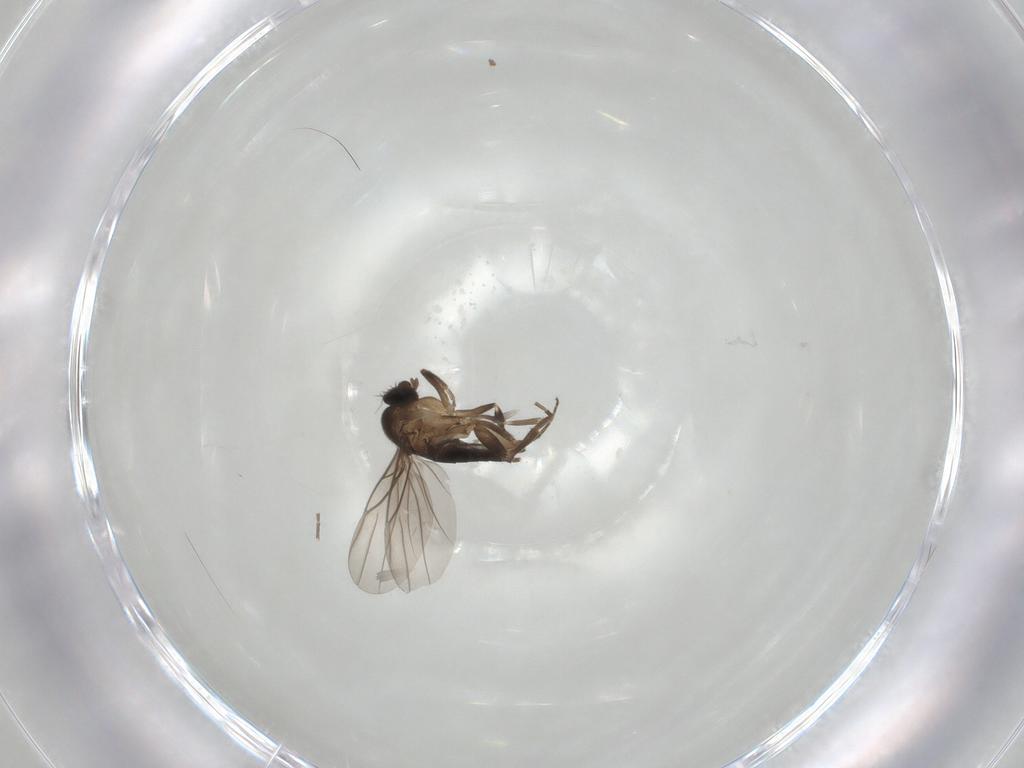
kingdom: Animalia
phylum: Arthropoda
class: Insecta
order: Diptera
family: Phoridae
